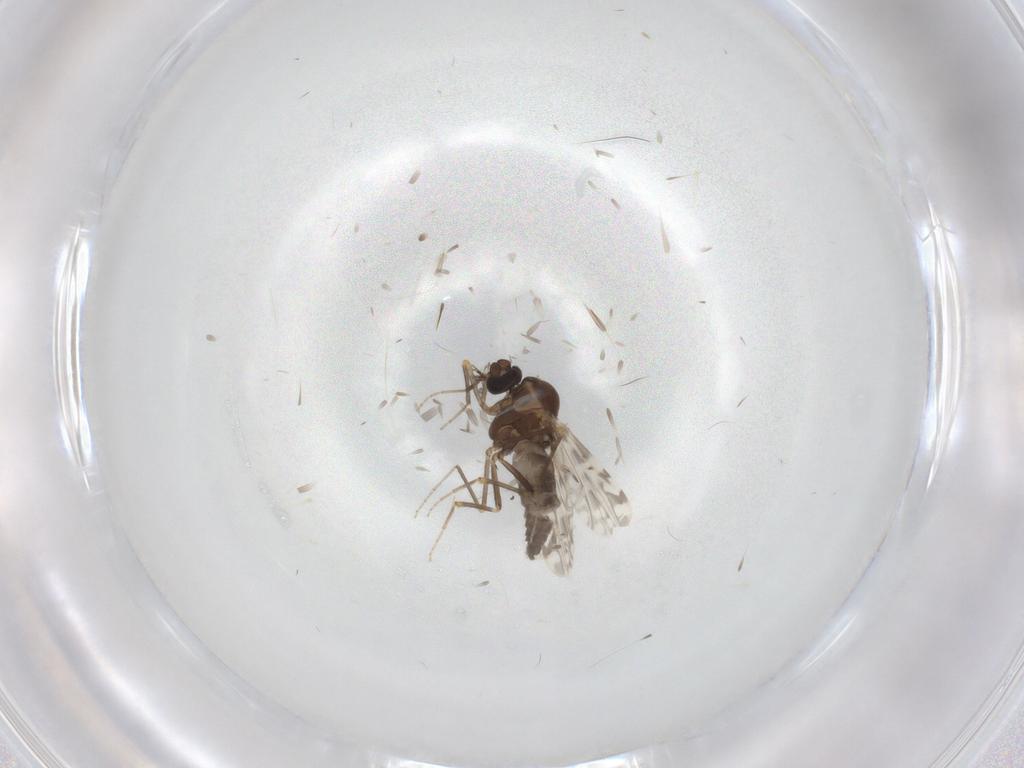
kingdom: Animalia
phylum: Arthropoda
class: Insecta
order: Diptera
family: Ceratopogonidae
